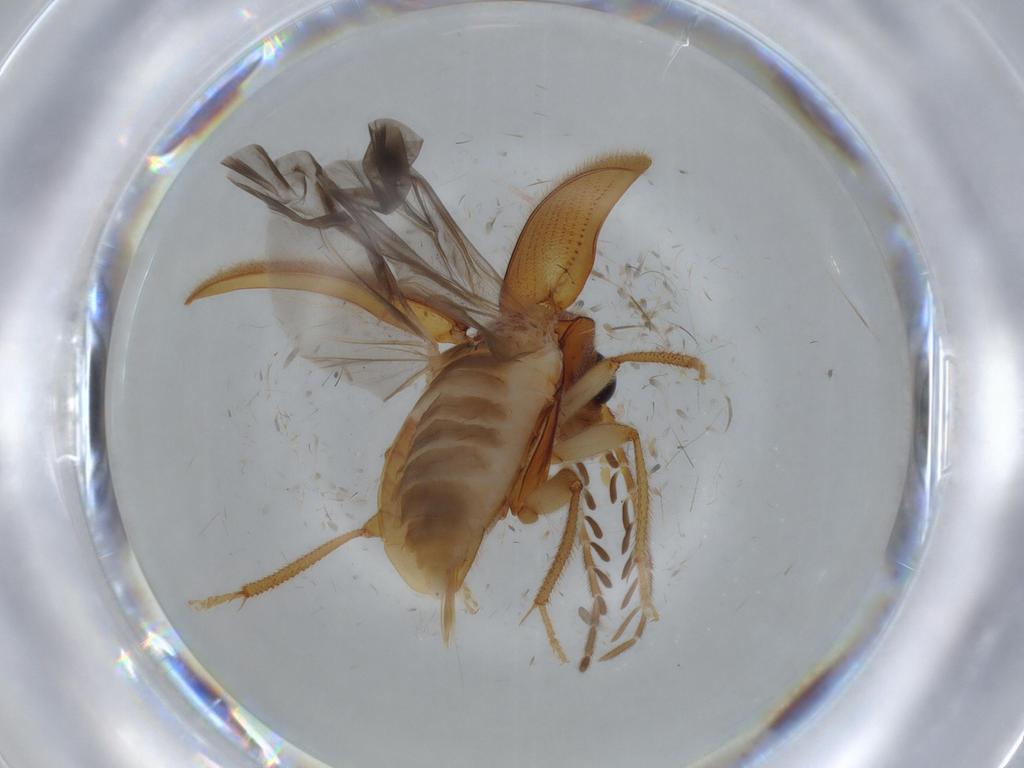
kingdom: Animalia
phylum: Arthropoda
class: Insecta
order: Coleoptera
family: Ptilodactylidae
